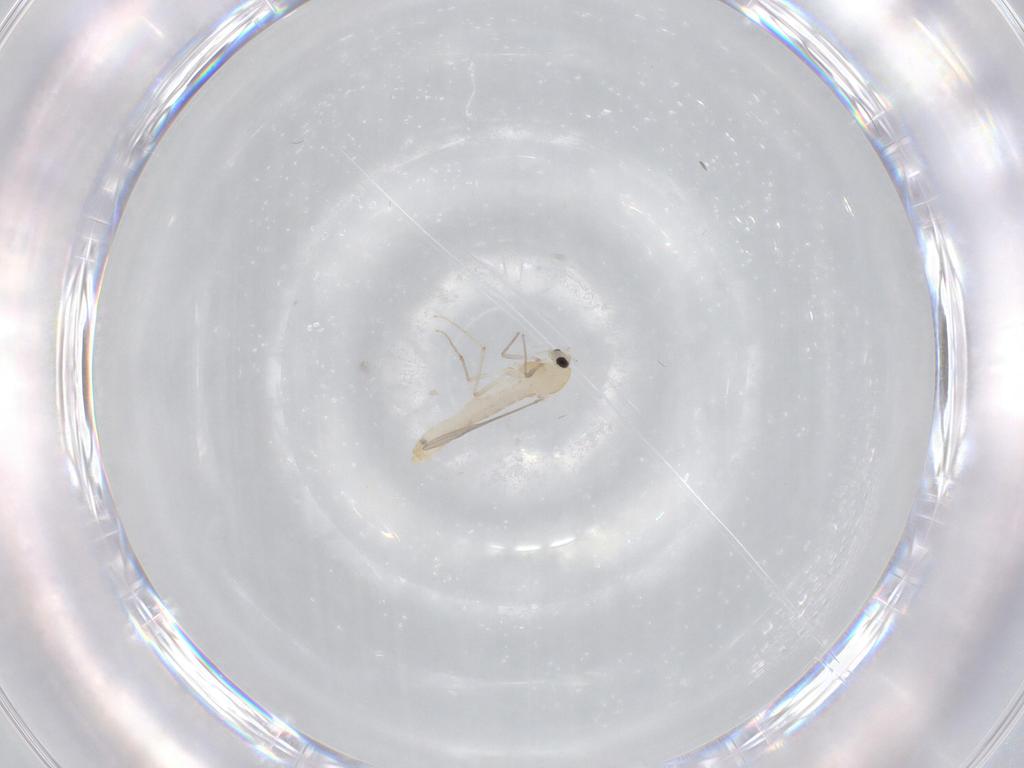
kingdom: Animalia
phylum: Arthropoda
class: Insecta
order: Diptera
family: Chironomidae
